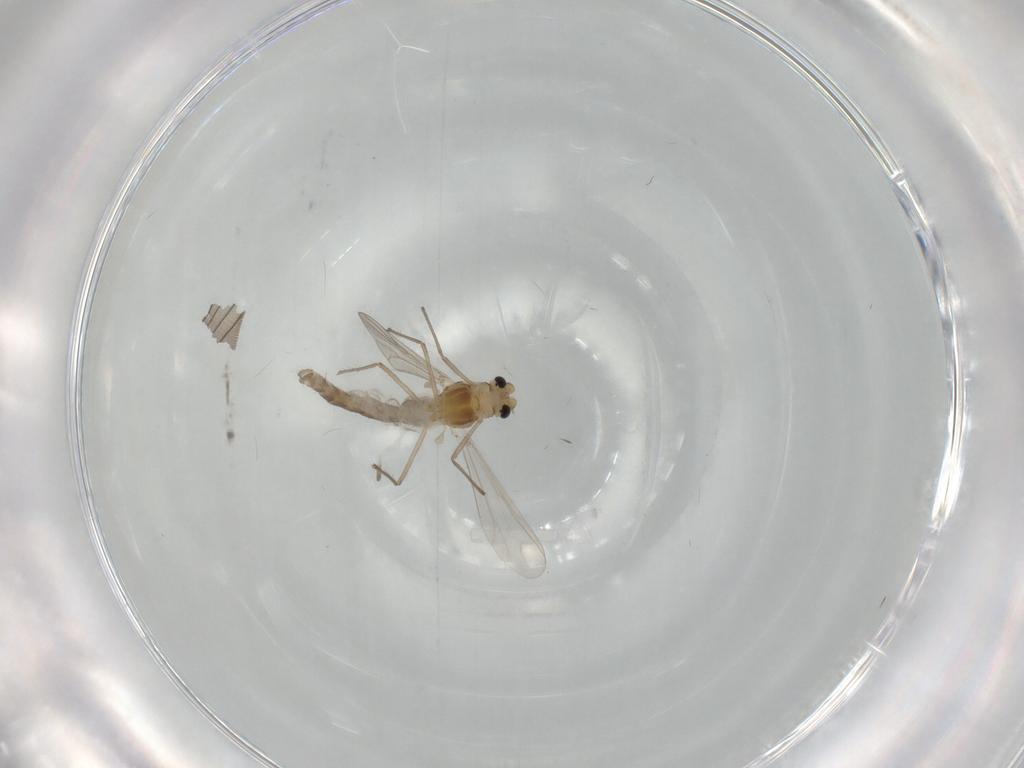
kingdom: Animalia
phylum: Arthropoda
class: Insecta
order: Diptera
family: Chironomidae
